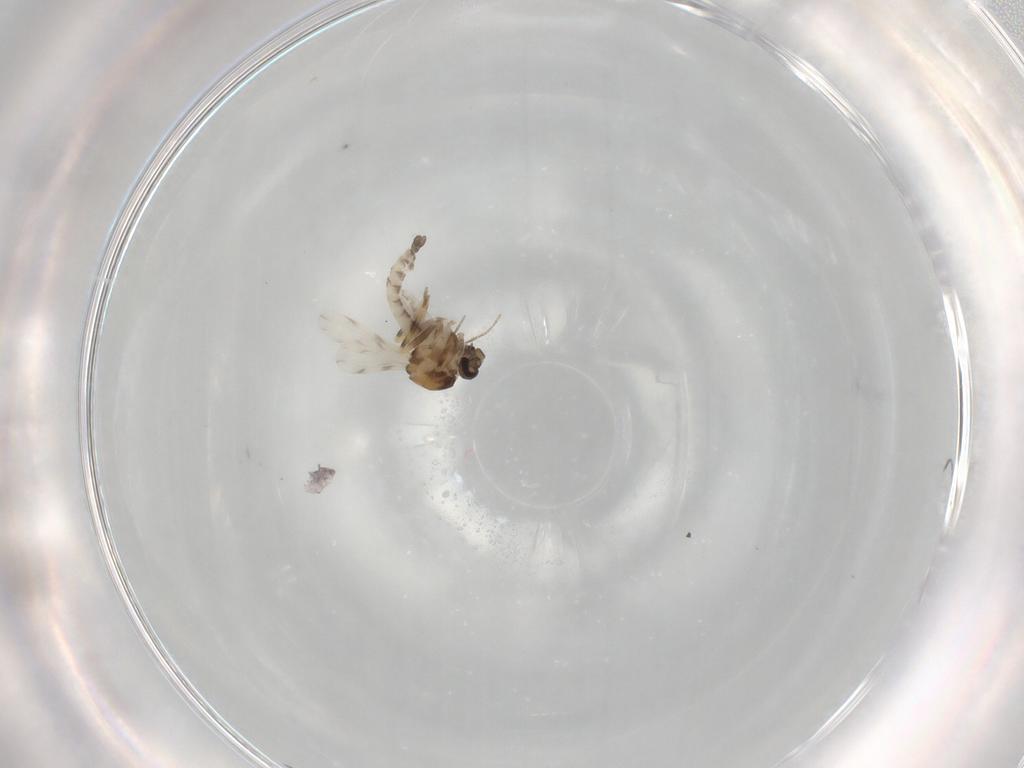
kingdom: Animalia
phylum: Arthropoda
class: Insecta
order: Diptera
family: Ceratopogonidae
